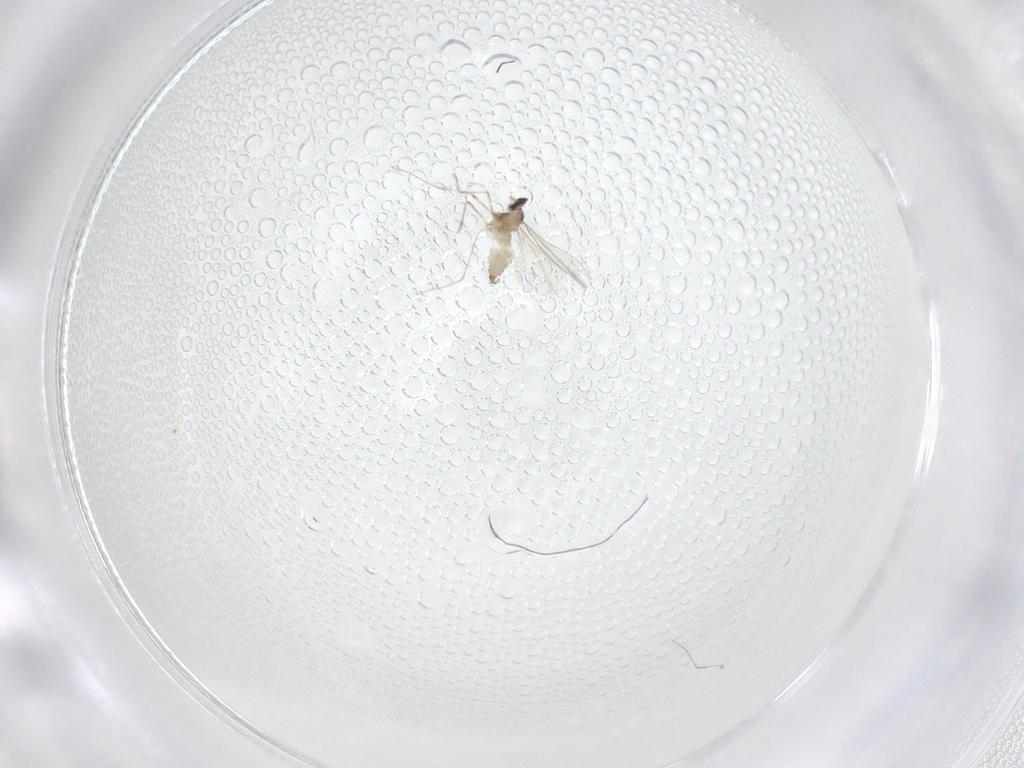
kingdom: Animalia
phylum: Arthropoda
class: Insecta
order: Diptera
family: Cecidomyiidae
